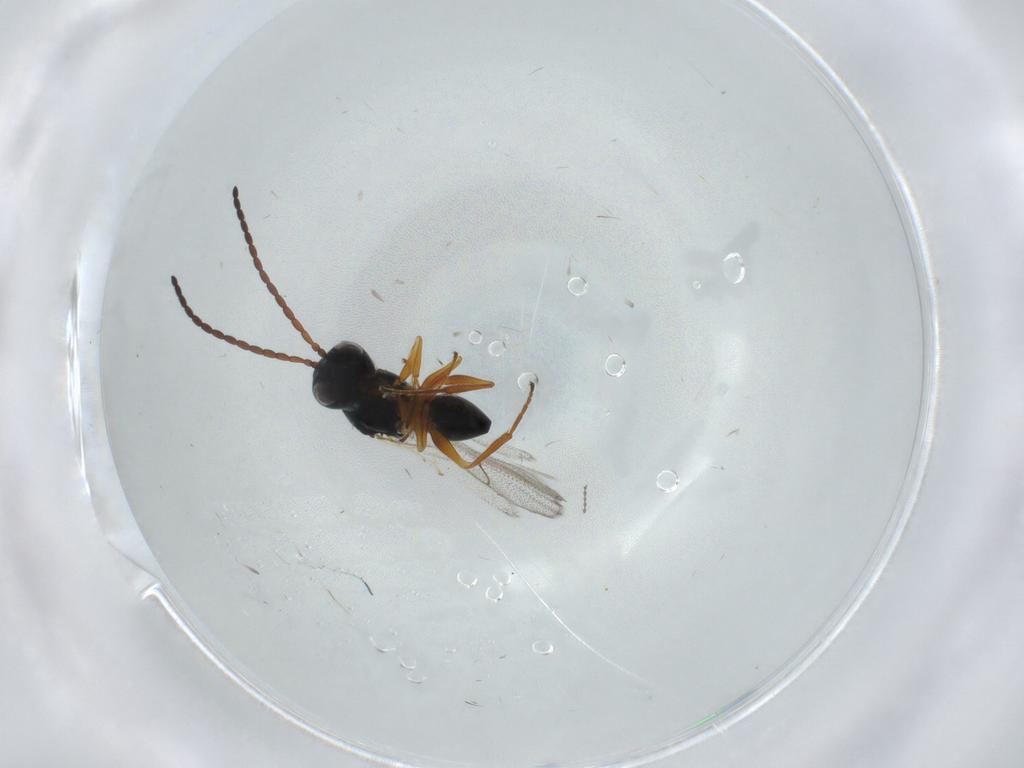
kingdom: Animalia
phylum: Arthropoda
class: Insecta
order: Hymenoptera
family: Figitidae
